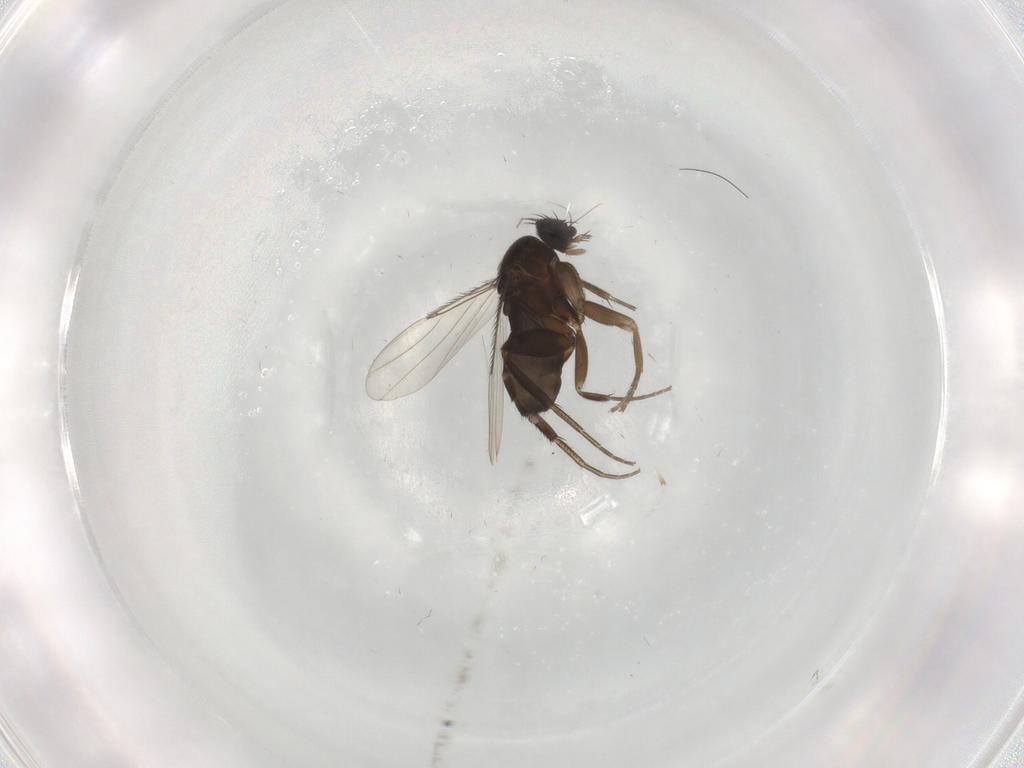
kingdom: Animalia
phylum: Arthropoda
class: Insecta
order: Diptera
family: Phoridae
